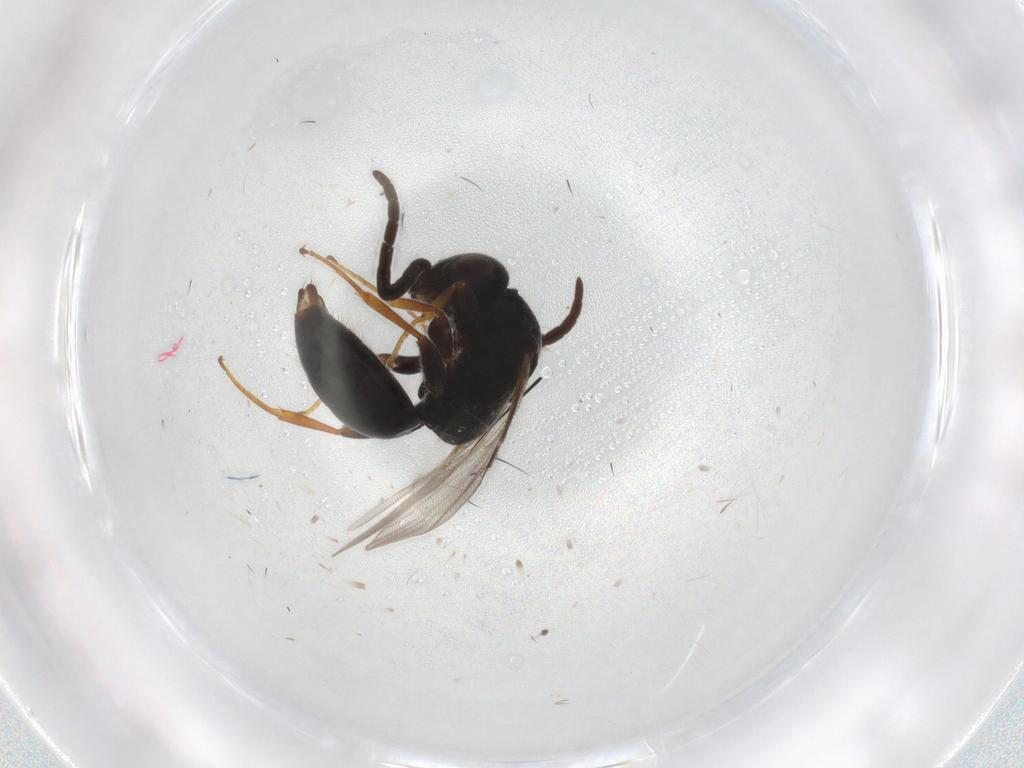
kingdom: Animalia
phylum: Arthropoda
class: Insecta
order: Hymenoptera
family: Bethylidae
